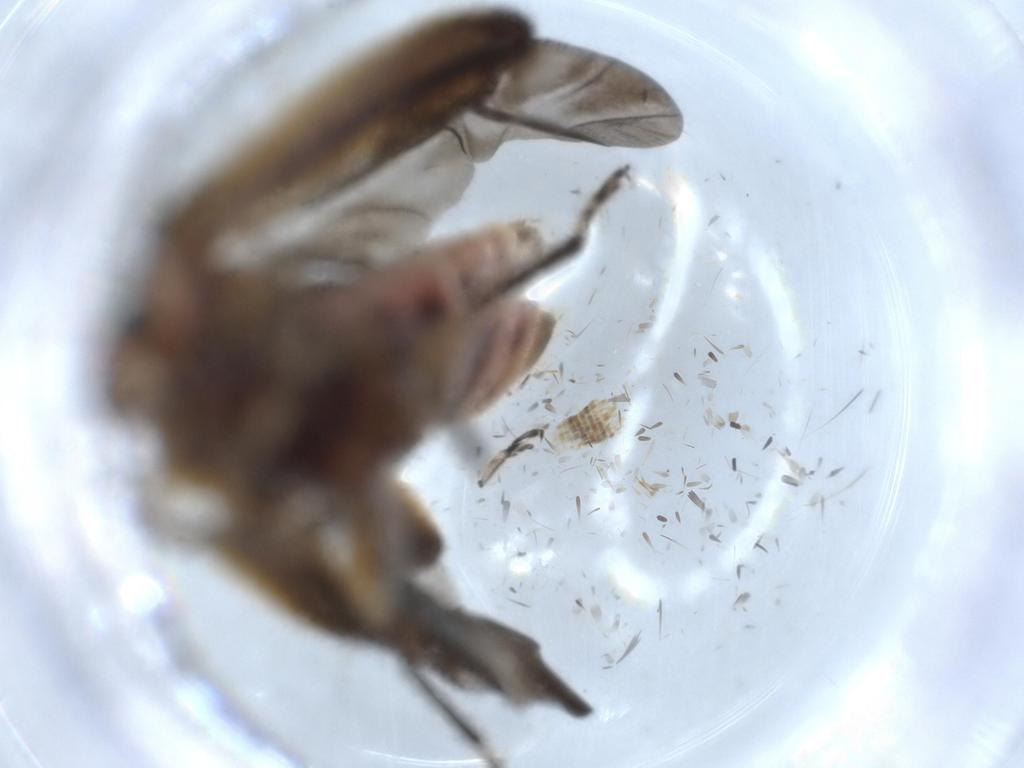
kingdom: Animalia
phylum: Arthropoda
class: Insecta
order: Coleoptera
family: Cleridae
